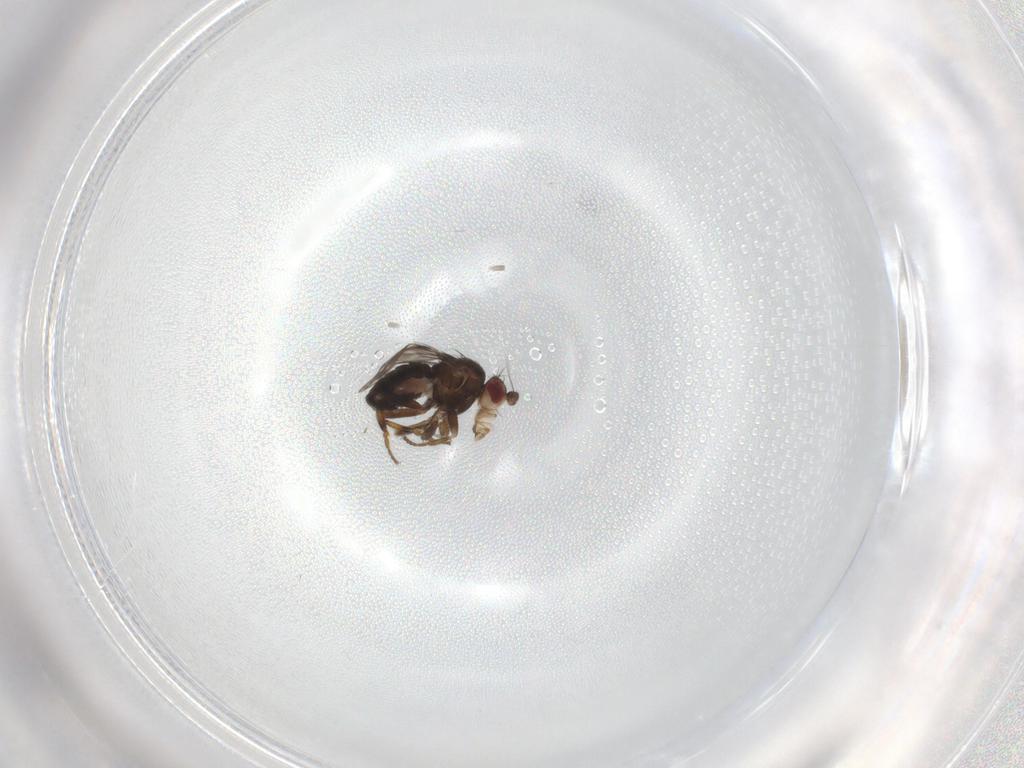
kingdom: Animalia
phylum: Arthropoda
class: Insecta
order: Diptera
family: Sphaeroceridae
